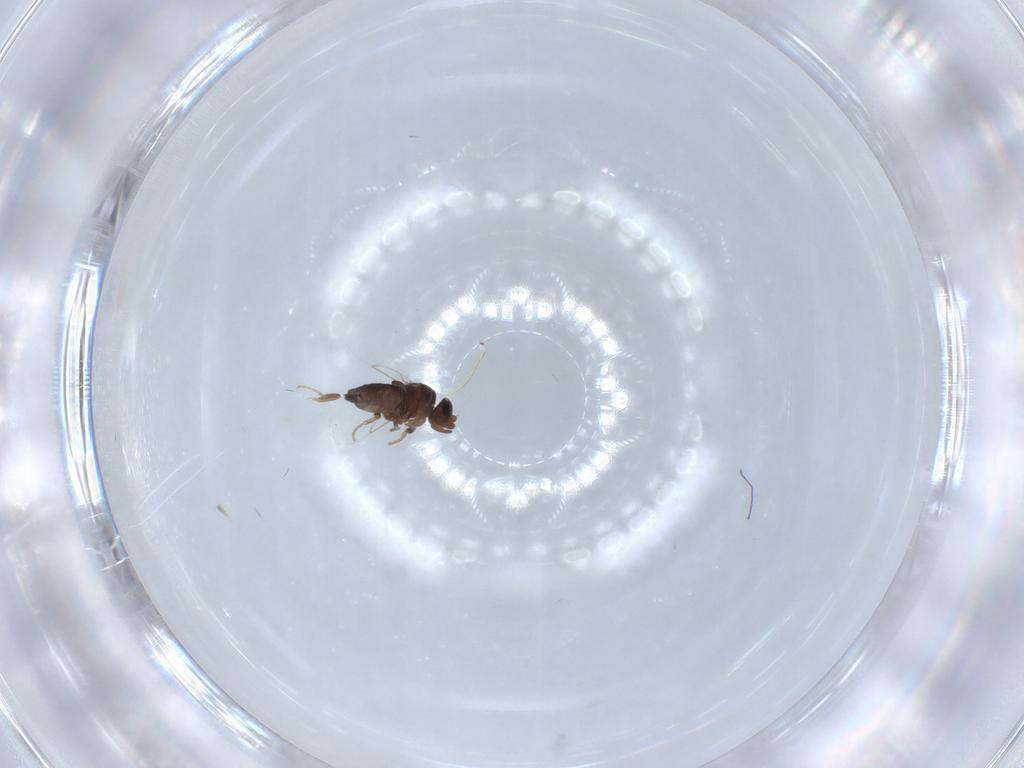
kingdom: Animalia
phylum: Arthropoda
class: Insecta
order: Diptera
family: Phoridae
